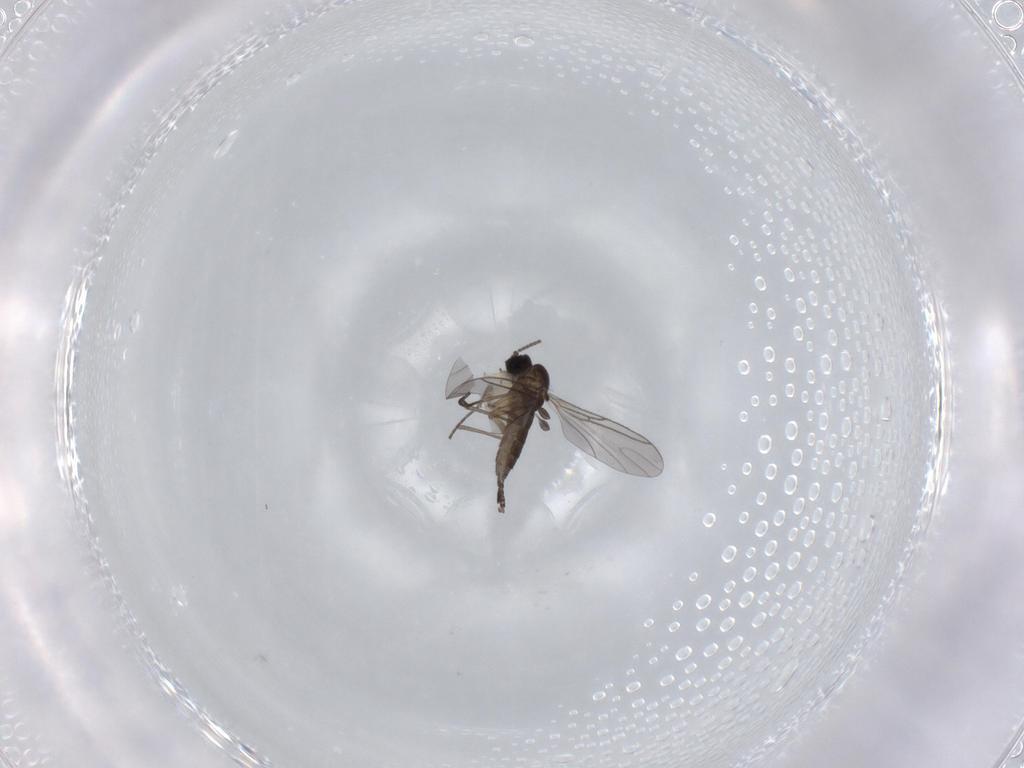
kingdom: Animalia
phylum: Arthropoda
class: Insecta
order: Diptera
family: Sciaridae
